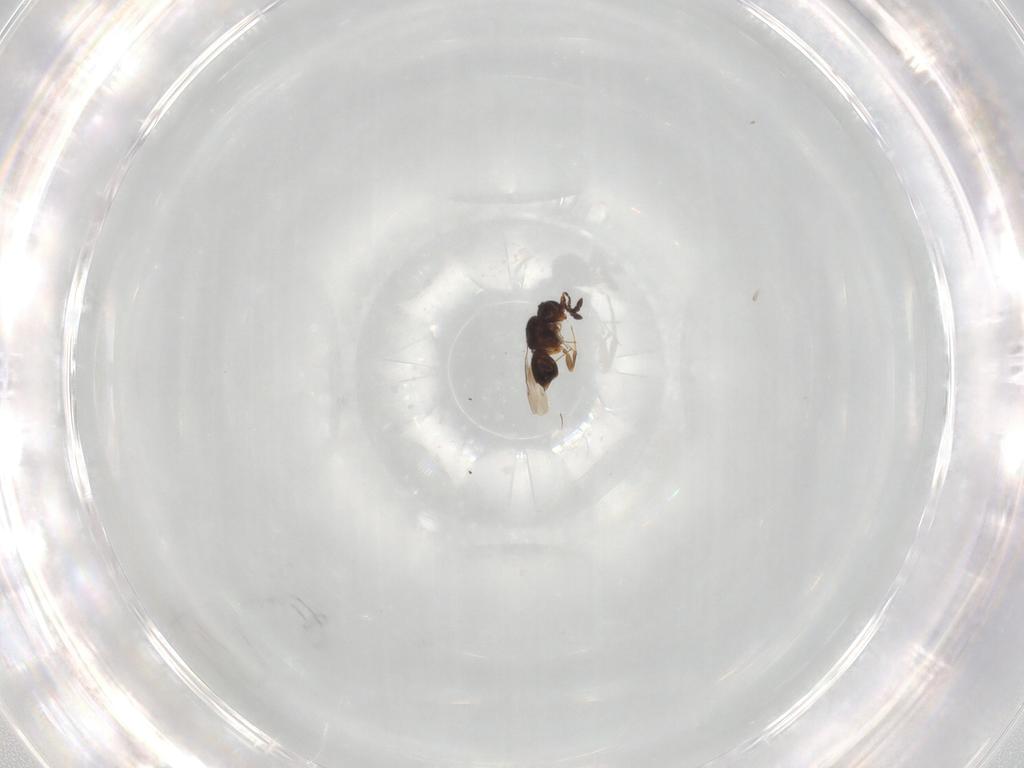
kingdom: Animalia
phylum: Arthropoda
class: Insecta
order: Hymenoptera
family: Ceraphronidae
